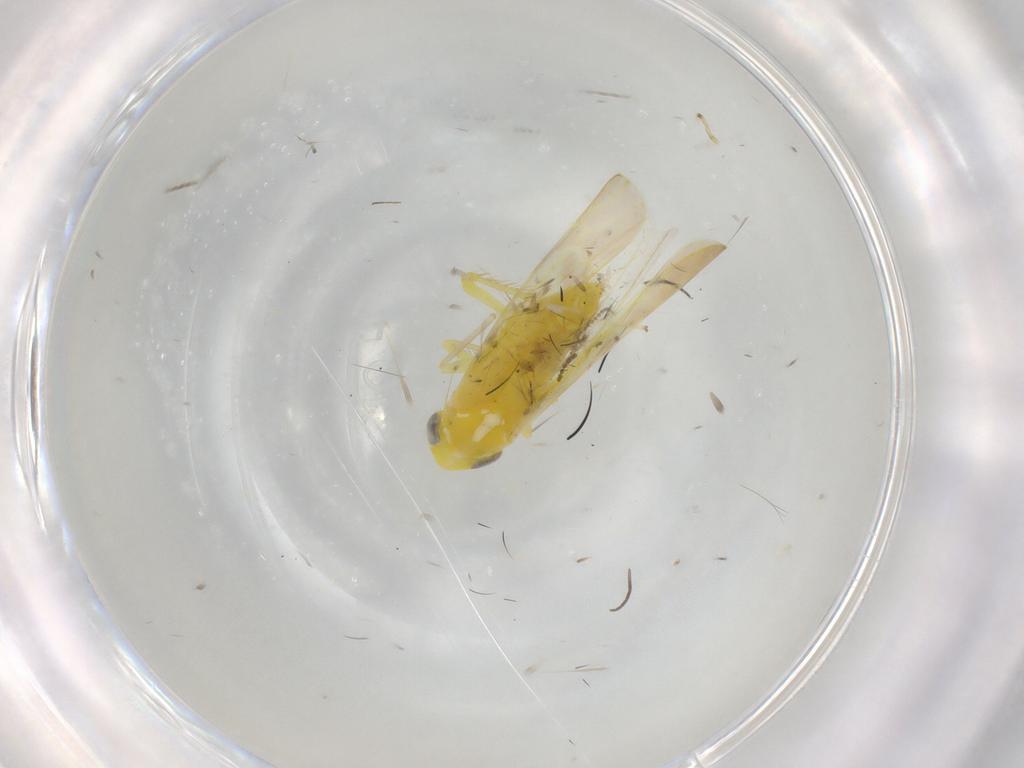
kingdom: Animalia
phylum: Arthropoda
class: Insecta
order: Hemiptera
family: Cicadellidae
